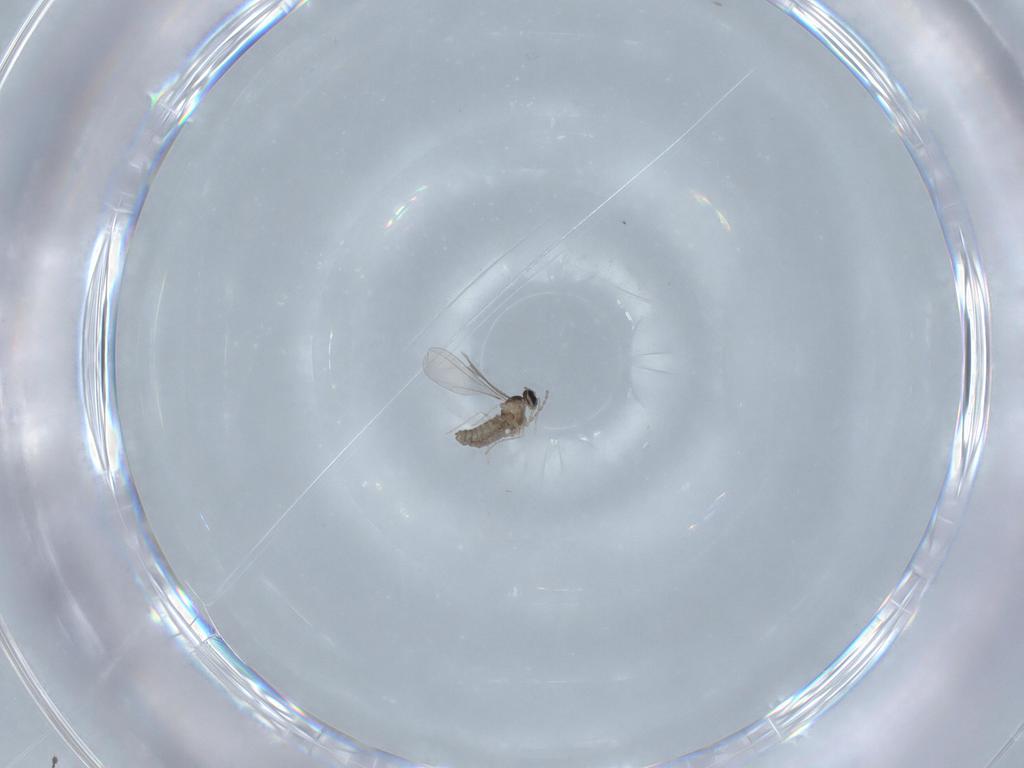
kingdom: Animalia
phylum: Arthropoda
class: Insecta
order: Diptera
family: Cecidomyiidae
